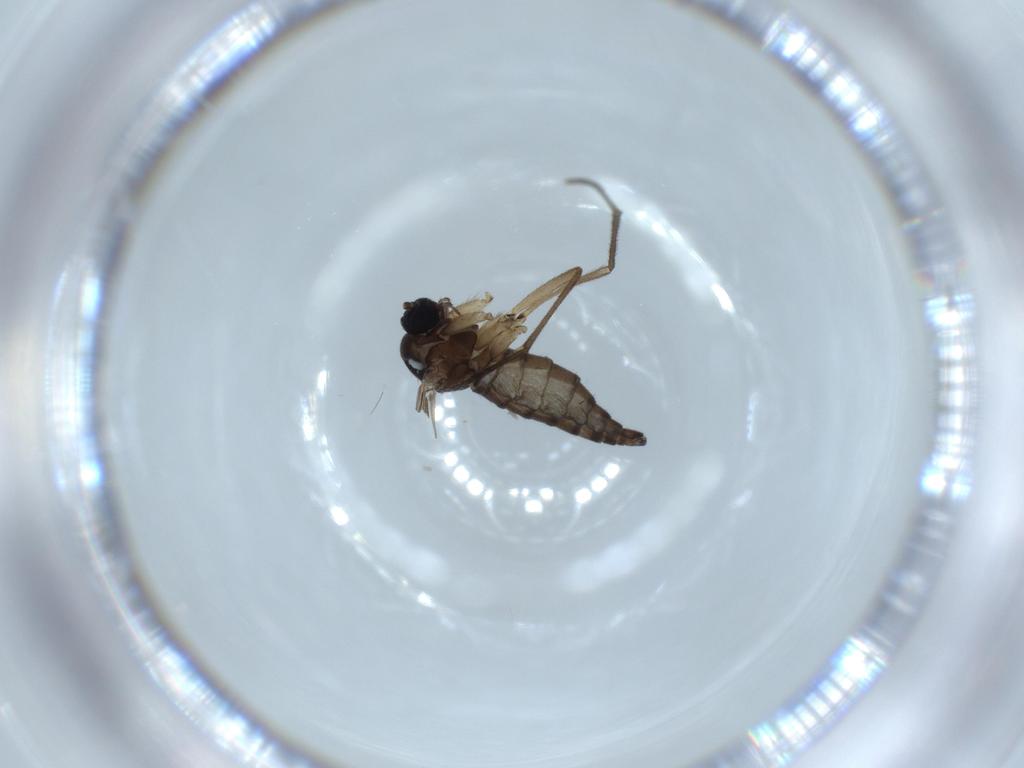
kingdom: Animalia
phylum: Arthropoda
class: Insecta
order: Diptera
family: Sciaridae
